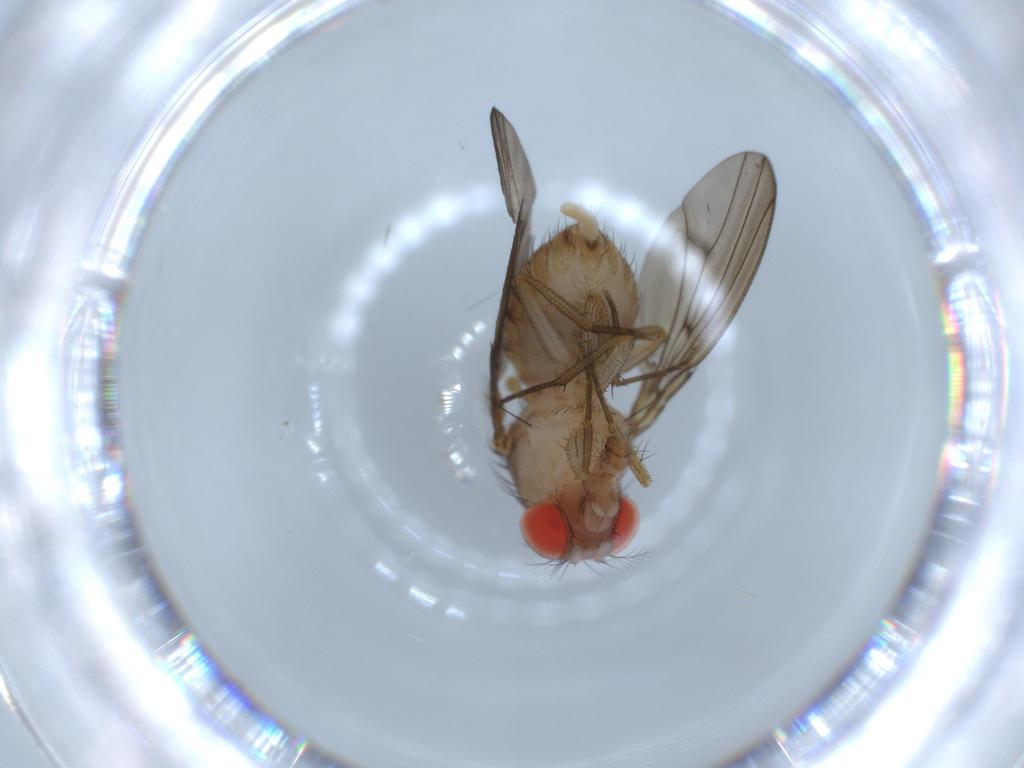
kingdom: Animalia
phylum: Arthropoda
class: Insecta
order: Diptera
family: Drosophilidae
